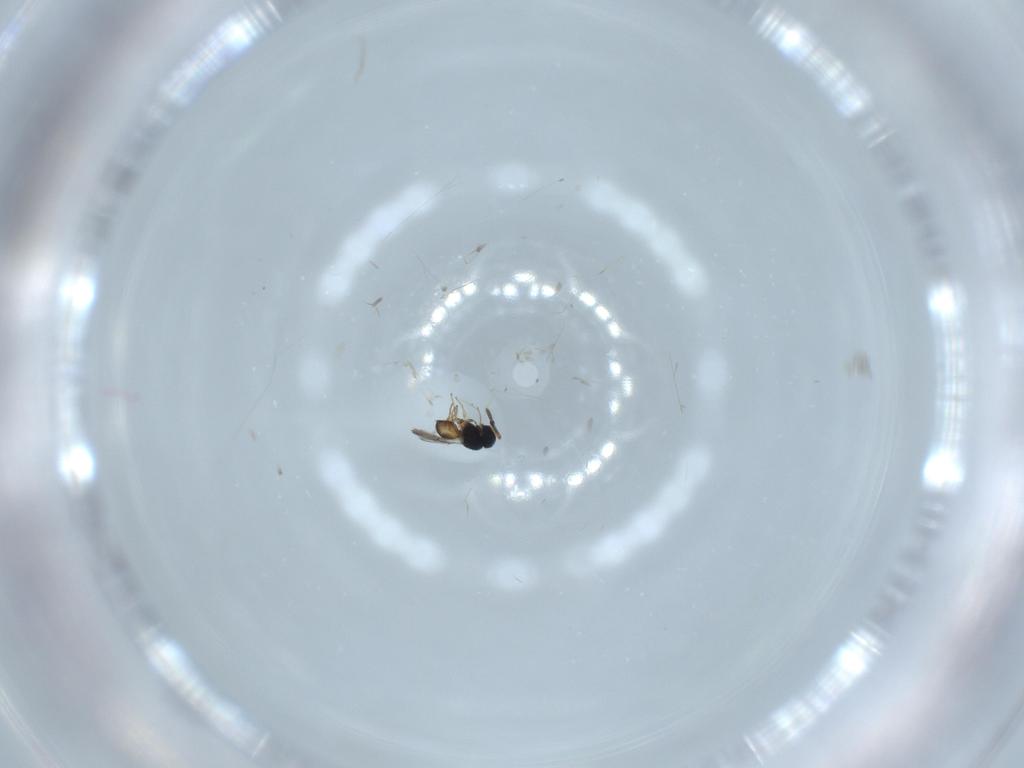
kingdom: Animalia
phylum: Arthropoda
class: Insecta
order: Hymenoptera
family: Scelionidae
